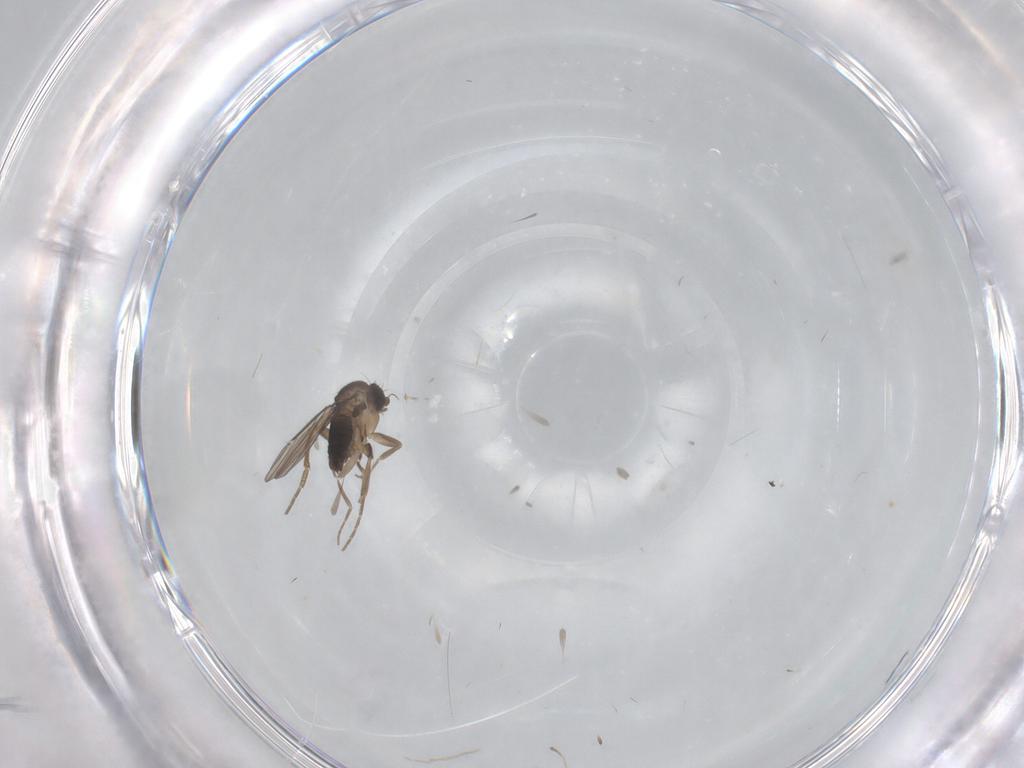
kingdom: Animalia
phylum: Arthropoda
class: Insecta
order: Diptera
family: Phoridae
